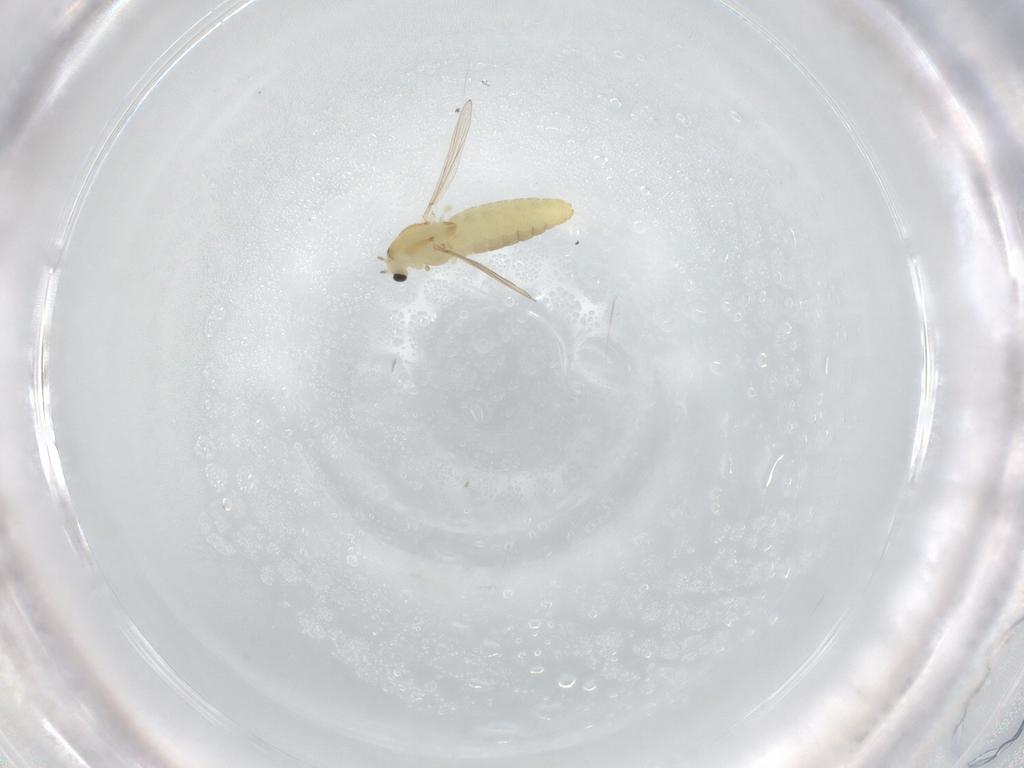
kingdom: Animalia
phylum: Arthropoda
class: Insecta
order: Diptera
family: Chironomidae
